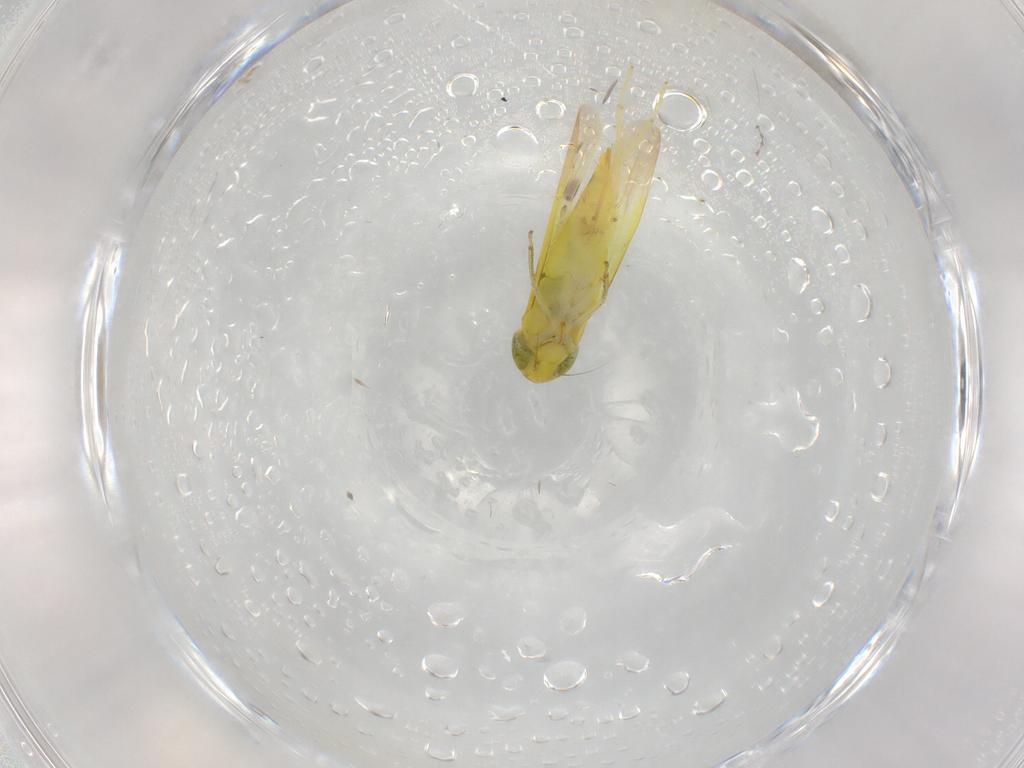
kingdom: Animalia
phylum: Arthropoda
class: Insecta
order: Hemiptera
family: Cicadellidae
